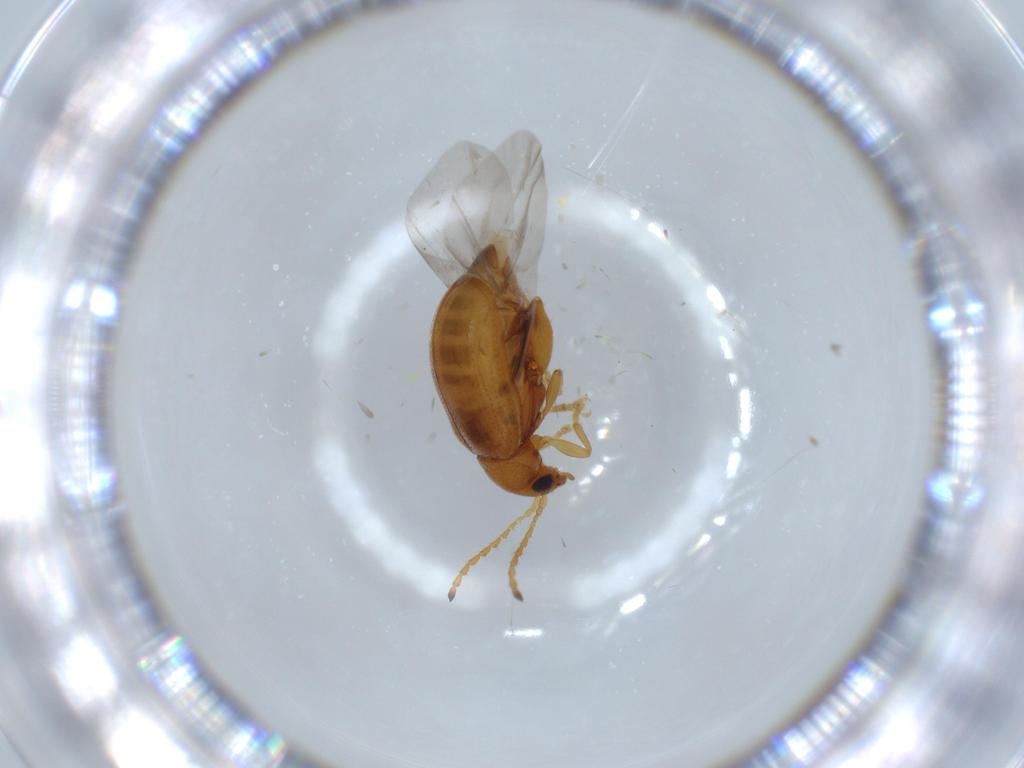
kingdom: Animalia
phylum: Arthropoda
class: Insecta
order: Coleoptera
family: Chrysomelidae
